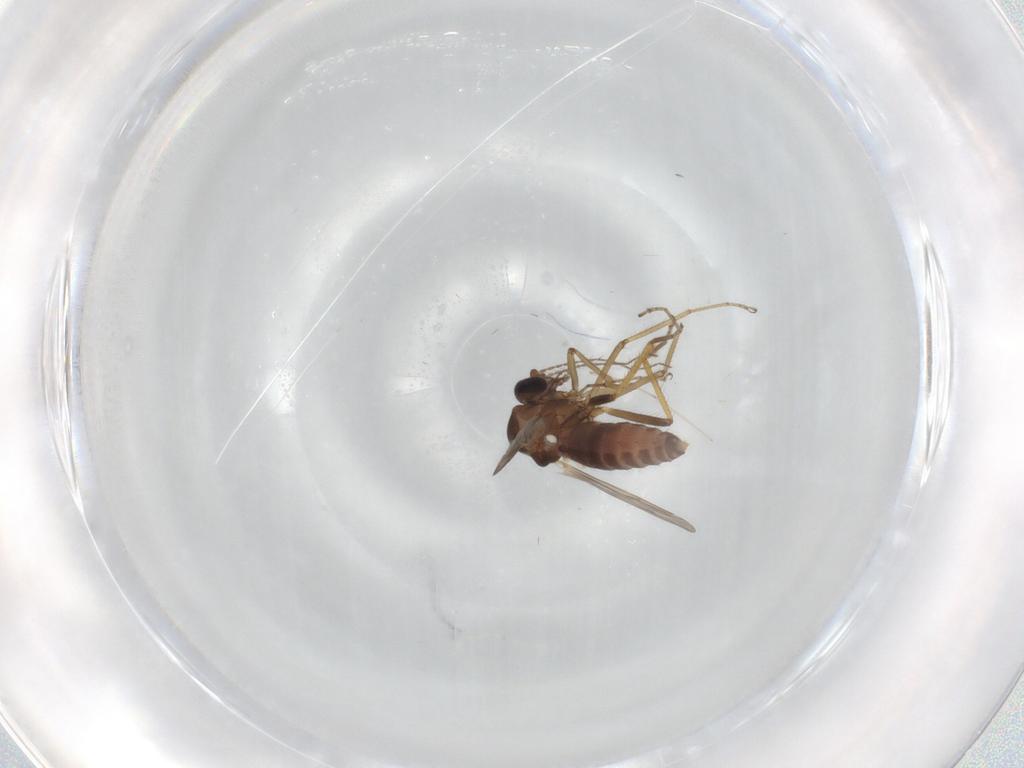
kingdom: Animalia
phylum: Arthropoda
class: Insecta
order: Diptera
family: Ceratopogonidae
